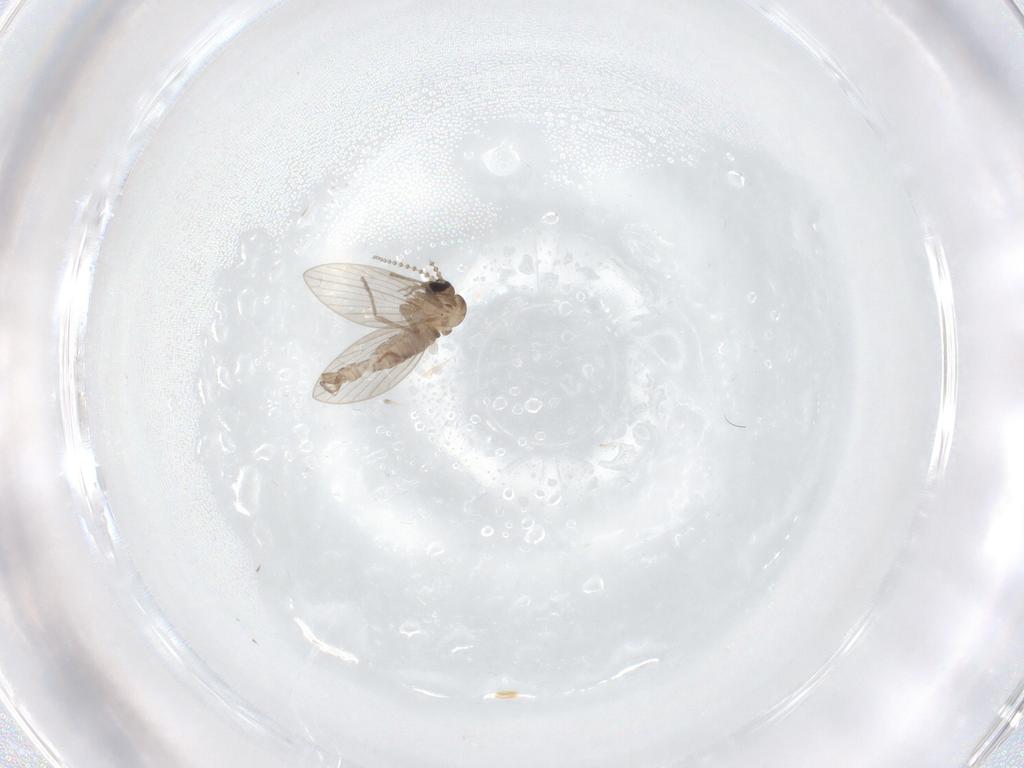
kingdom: Animalia
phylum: Arthropoda
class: Insecta
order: Diptera
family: Psychodidae
